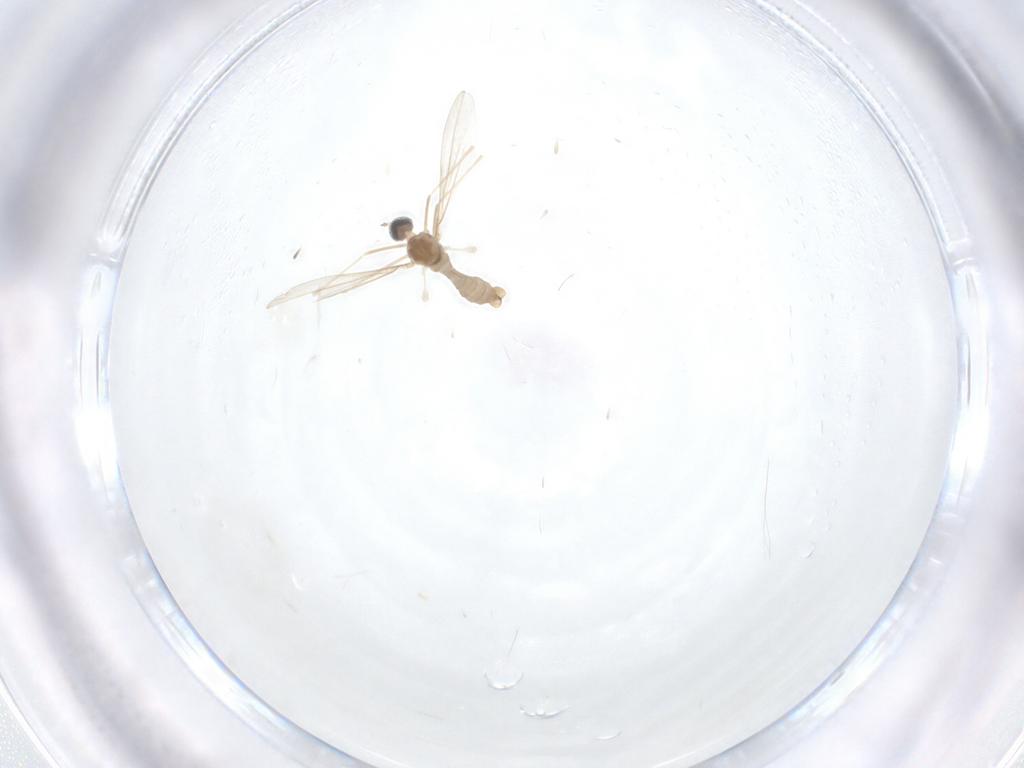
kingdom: Animalia
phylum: Arthropoda
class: Insecta
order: Diptera
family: Cecidomyiidae
